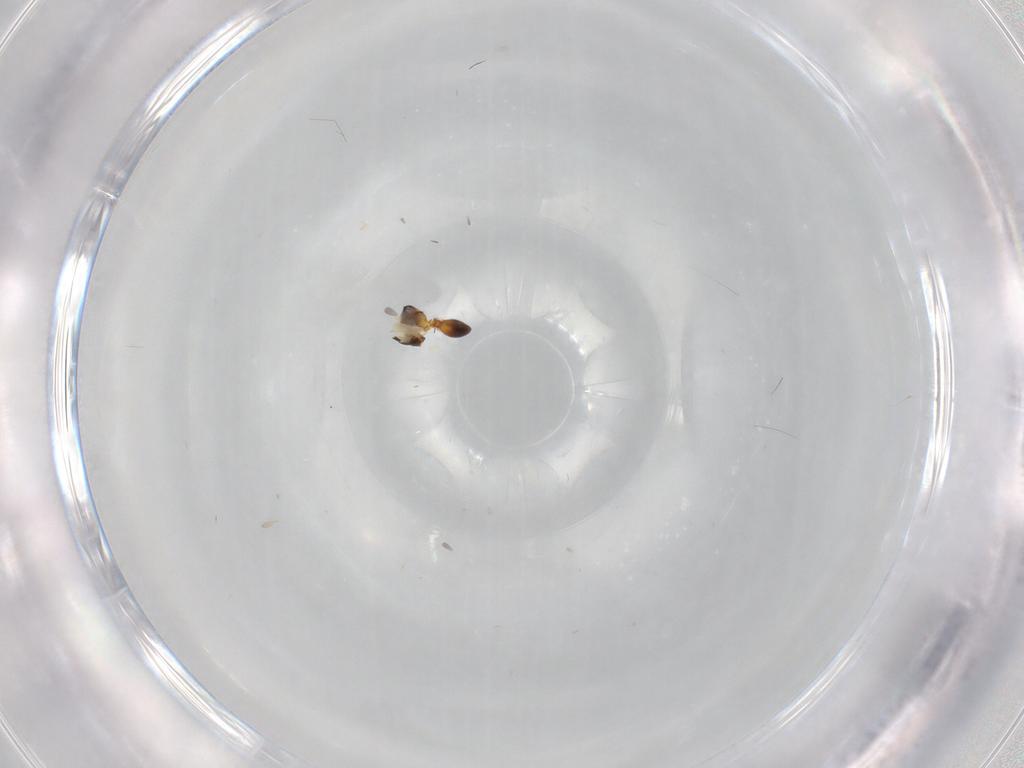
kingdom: Animalia
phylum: Arthropoda
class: Insecta
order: Hymenoptera
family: Platygastridae
